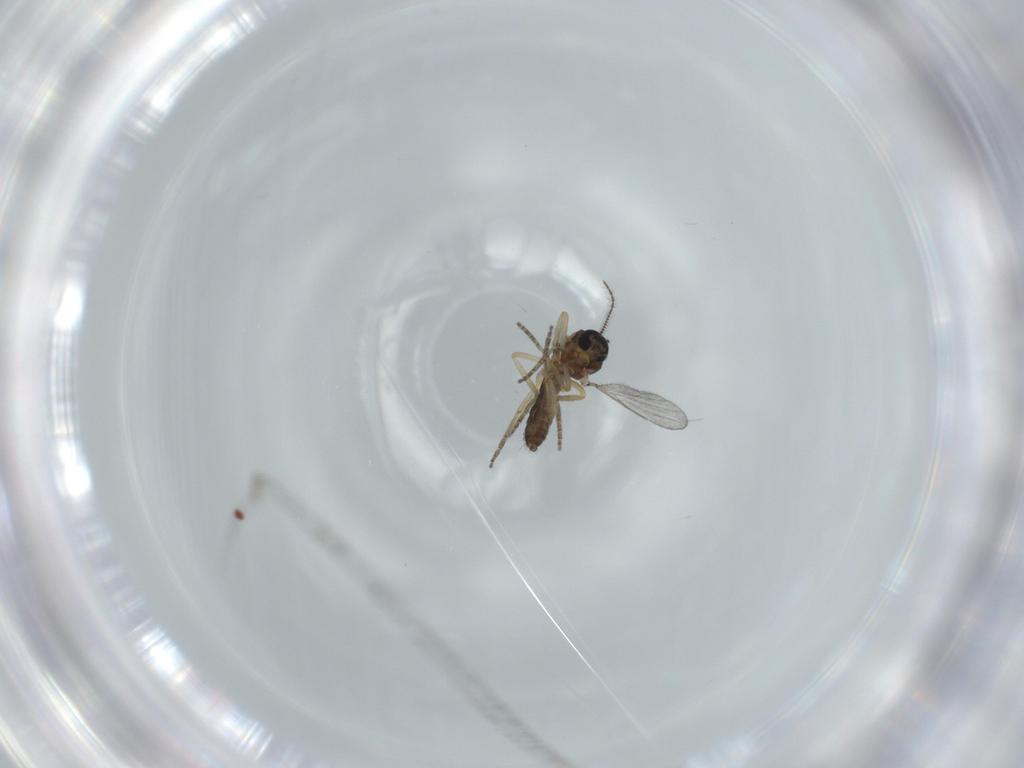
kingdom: Animalia
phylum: Arthropoda
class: Insecta
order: Diptera
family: Ceratopogonidae
